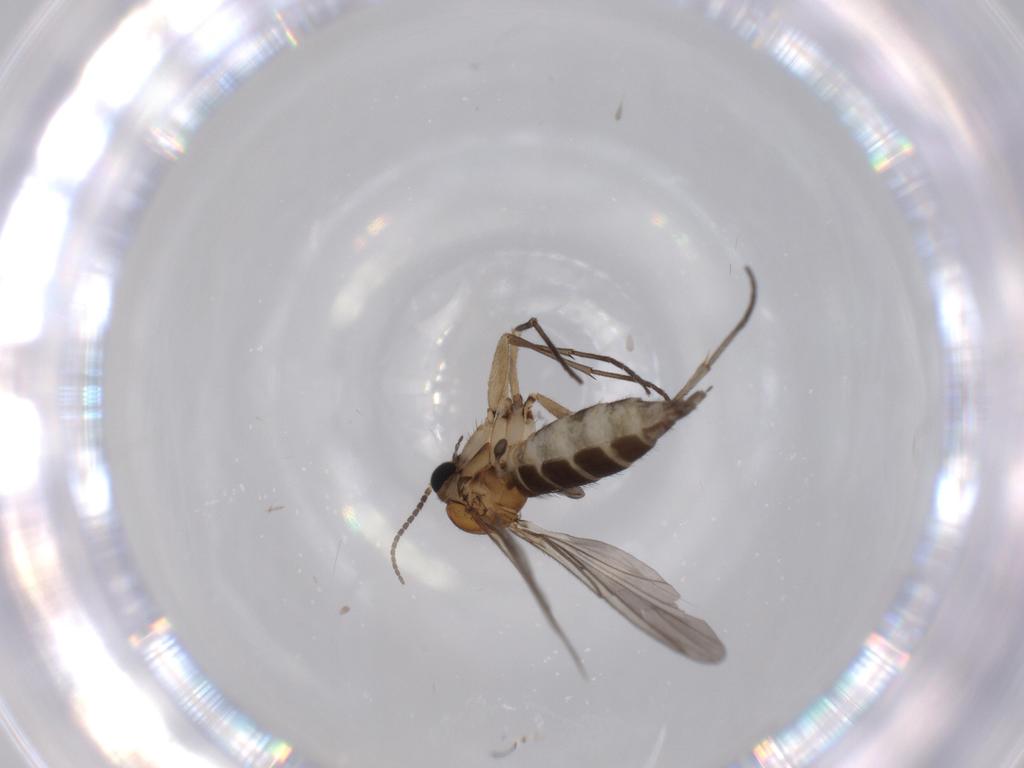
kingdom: Animalia
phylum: Arthropoda
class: Insecta
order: Diptera
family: Sciaridae
